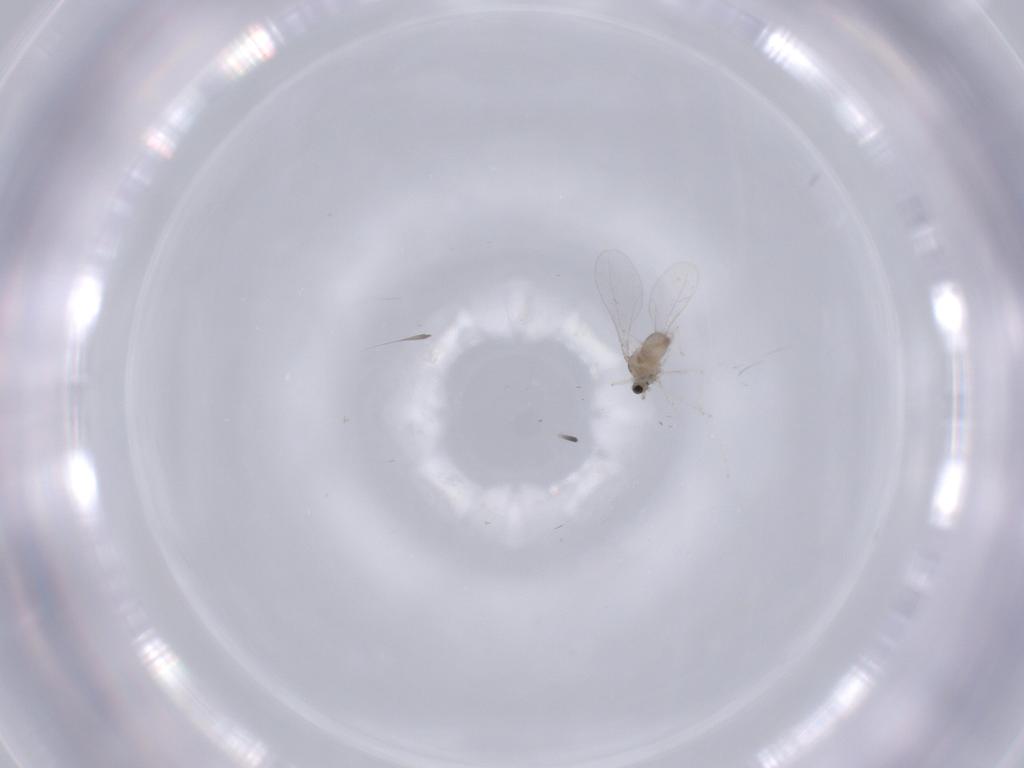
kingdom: Animalia
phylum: Arthropoda
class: Insecta
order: Diptera
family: Cecidomyiidae
